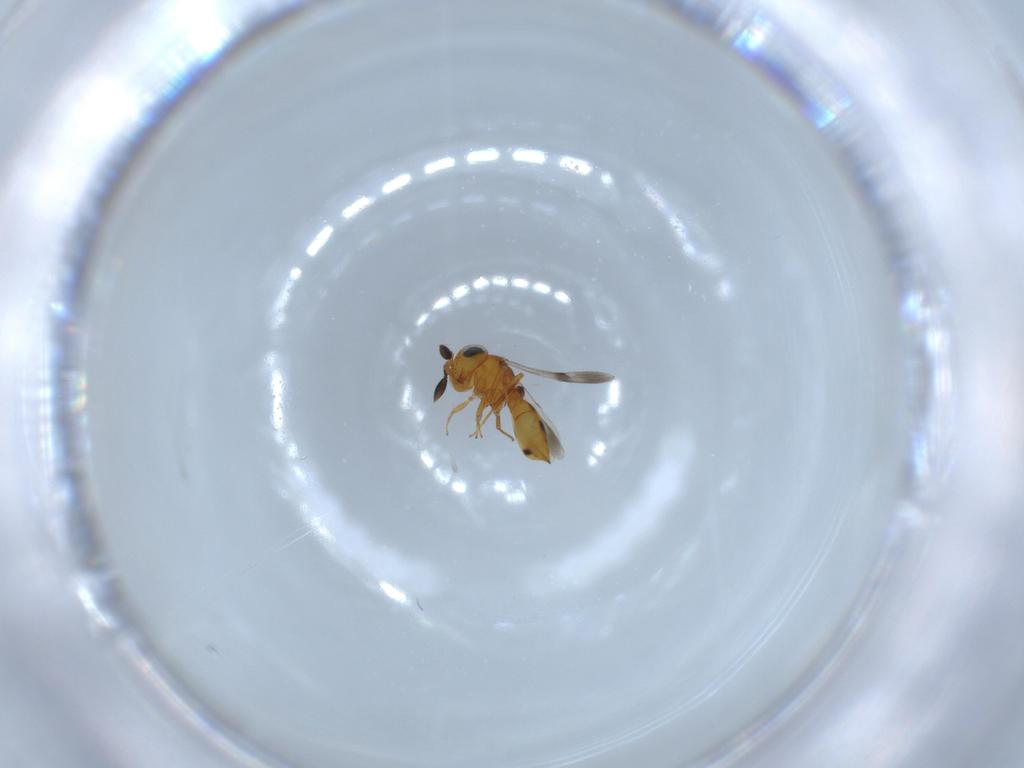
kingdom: Animalia
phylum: Arthropoda
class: Insecta
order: Hymenoptera
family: Scelionidae
